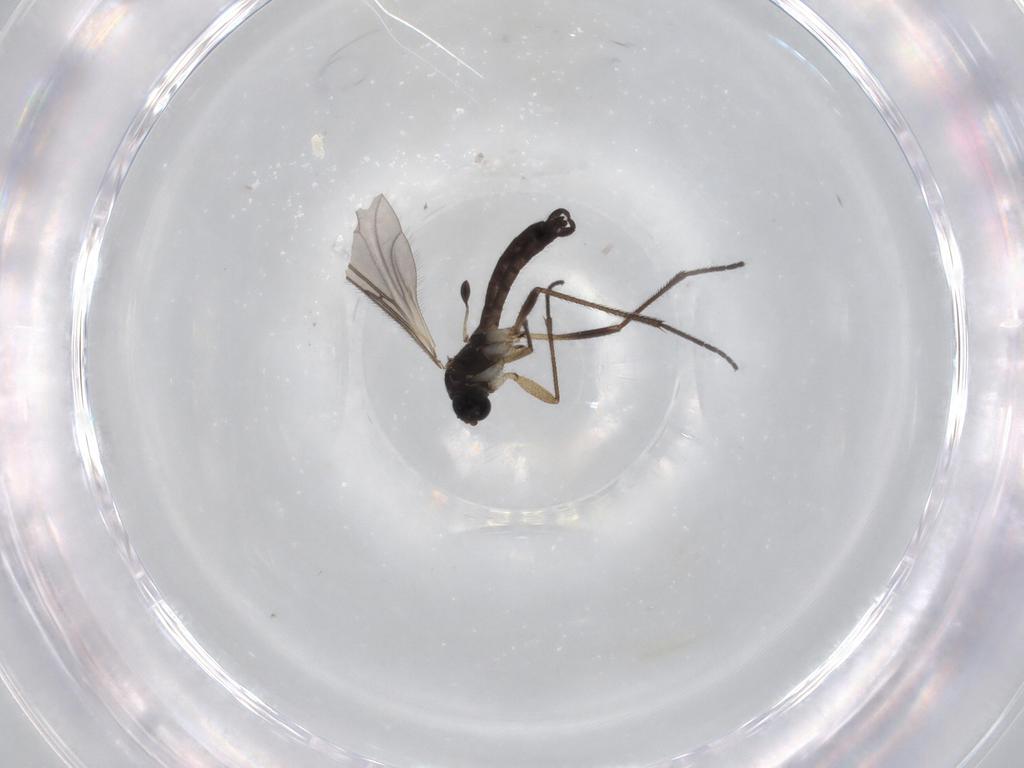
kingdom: Animalia
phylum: Arthropoda
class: Insecta
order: Diptera
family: Sciaridae
